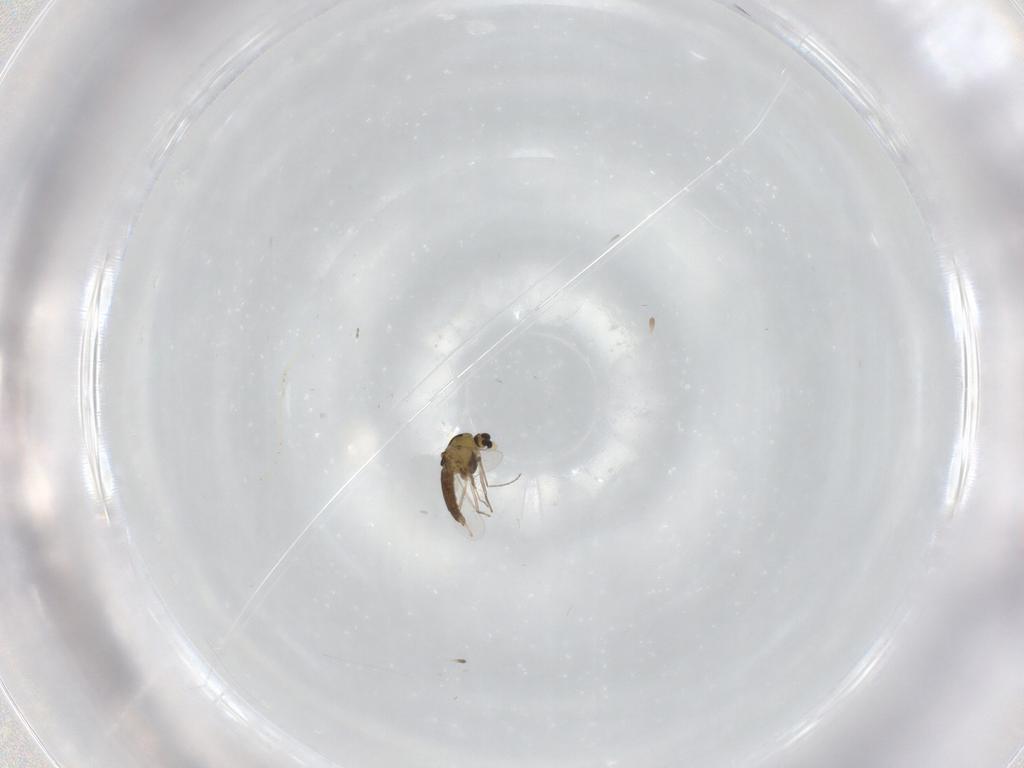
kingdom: Animalia
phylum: Arthropoda
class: Insecta
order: Diptera
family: Cecidomyiidae
